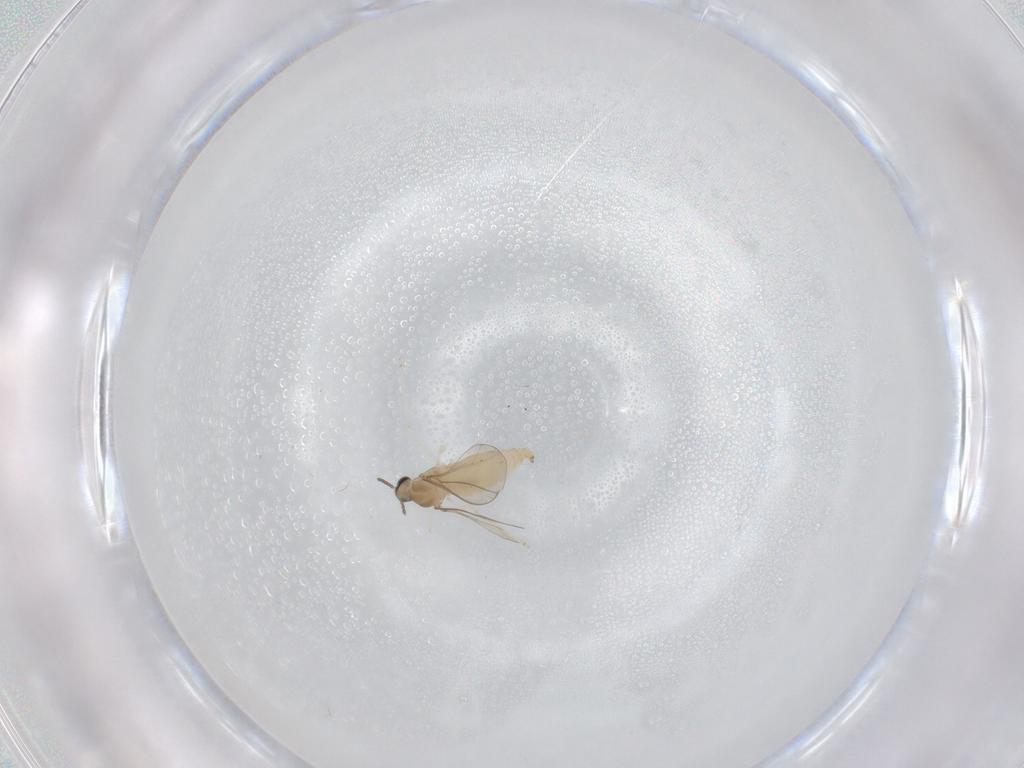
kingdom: Animalia
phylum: Arthropoda
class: Insecta
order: Diptera
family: Cecidomyiidae
